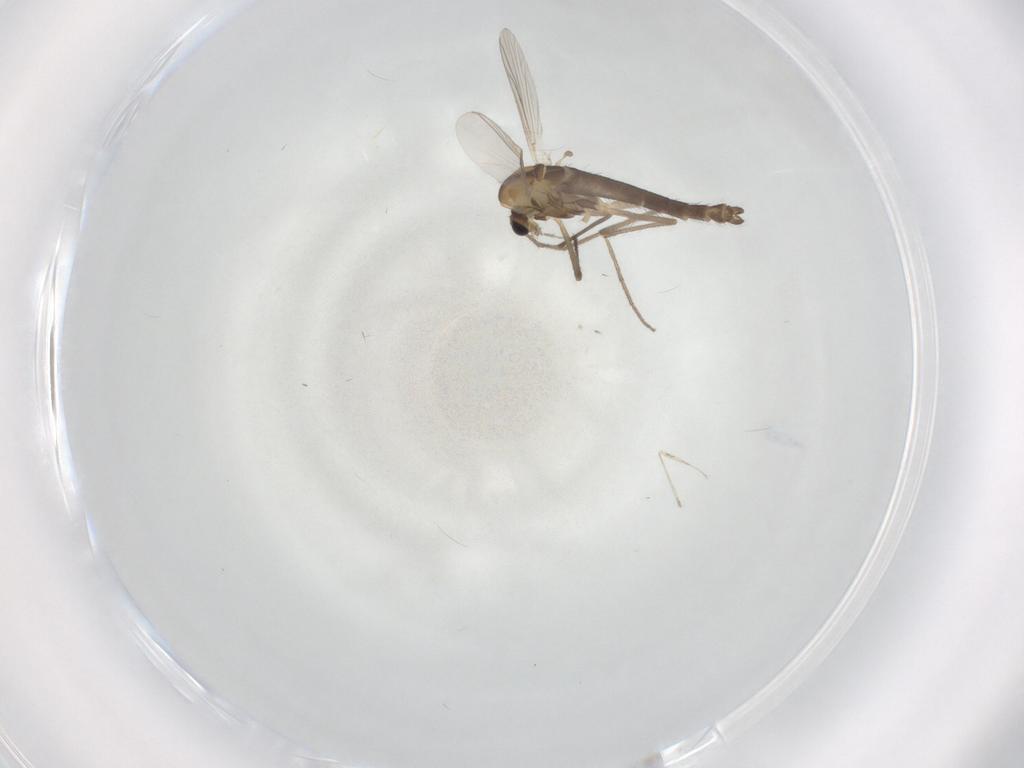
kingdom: Animalia
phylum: Arthropoda
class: Insecta
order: Diptera
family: Chironomidae
